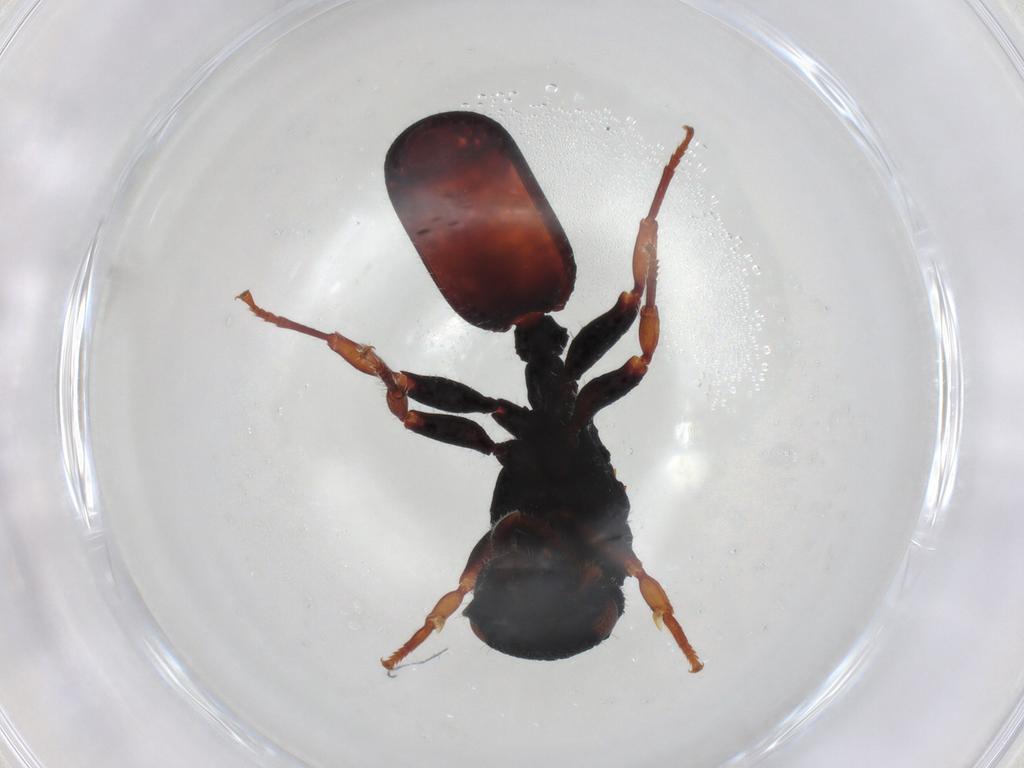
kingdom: Animalia
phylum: Arthropoda
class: Insecta
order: Hymenoptera
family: Formicidae
